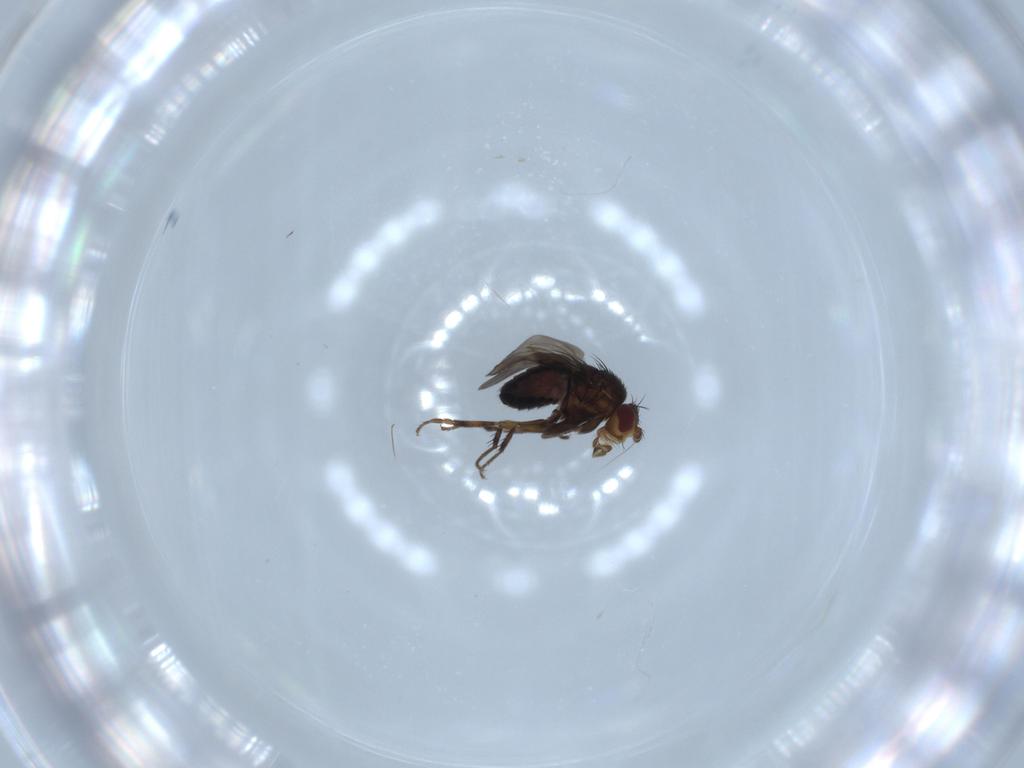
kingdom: Animalia
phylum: Arthropoda
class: Insecta
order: Diptera
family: Sphaeroceridae
